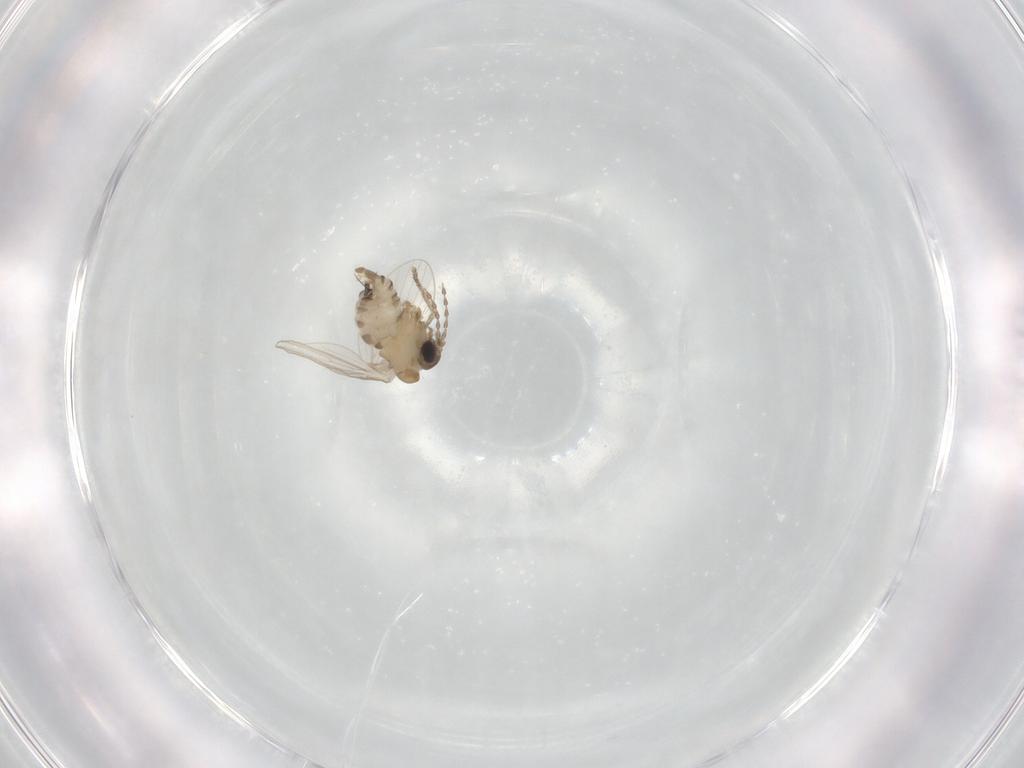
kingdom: Animalia
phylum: Arthropoda
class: Insecta
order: Diptera
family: Psychodidae
